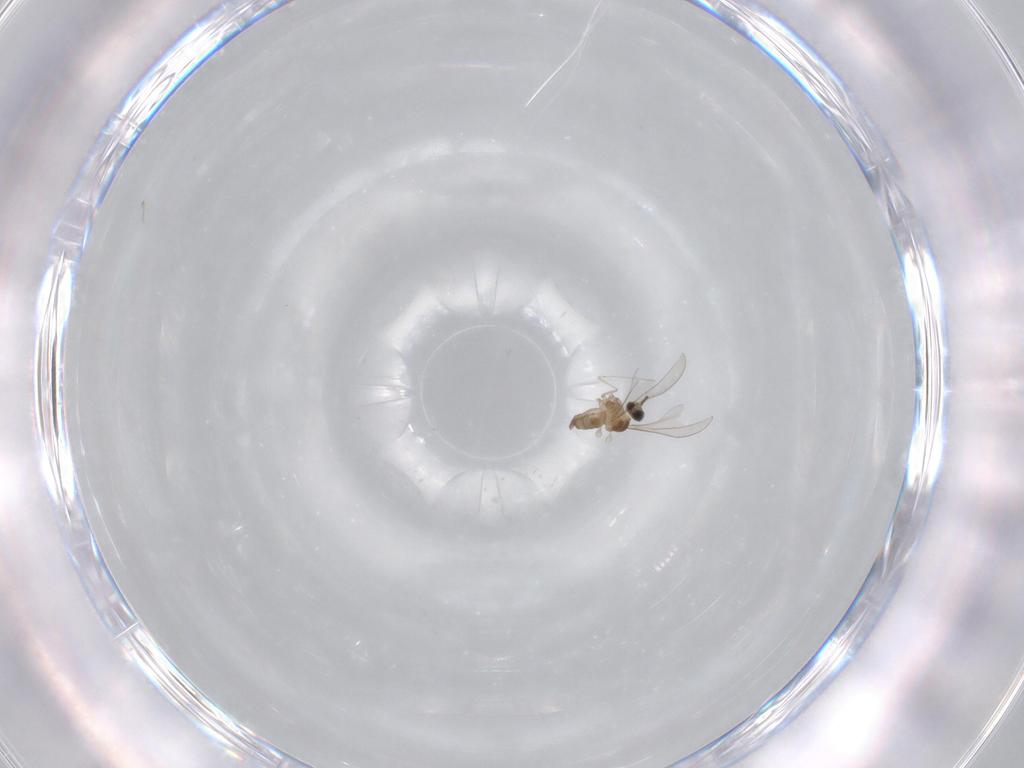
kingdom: Animalia
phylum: Arthropoda
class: Insecta
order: Diptera
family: Cecidomyiidae
